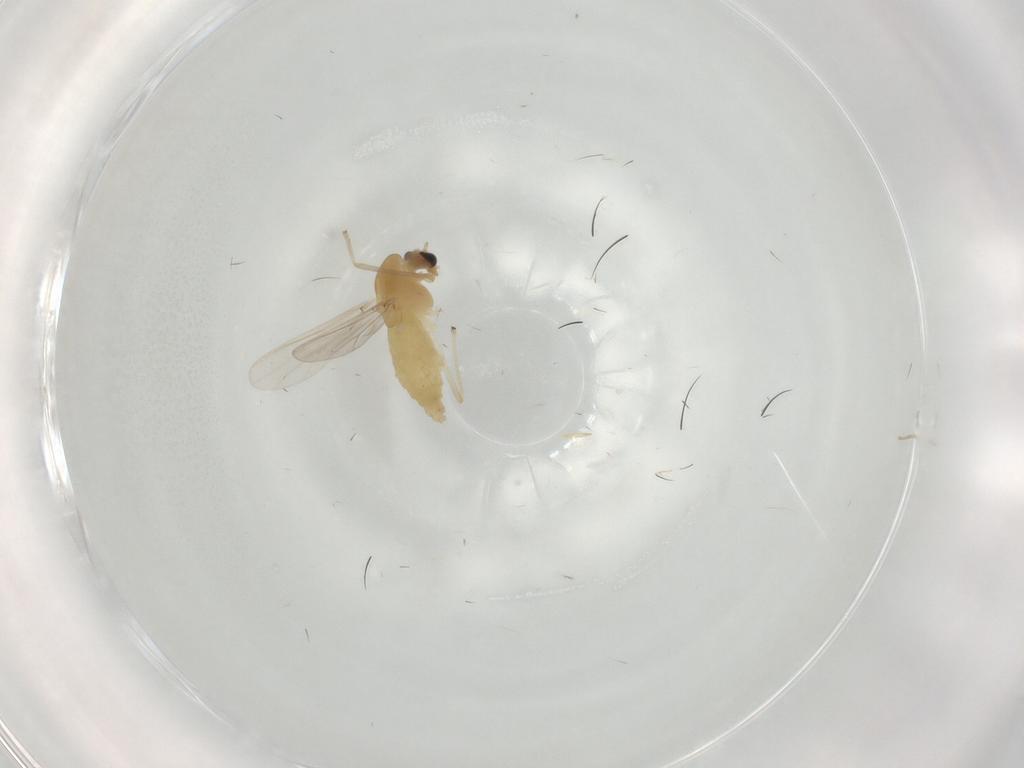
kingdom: Animalia
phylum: Arthropoda
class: Insecta
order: Diptera
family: Chironomidae
